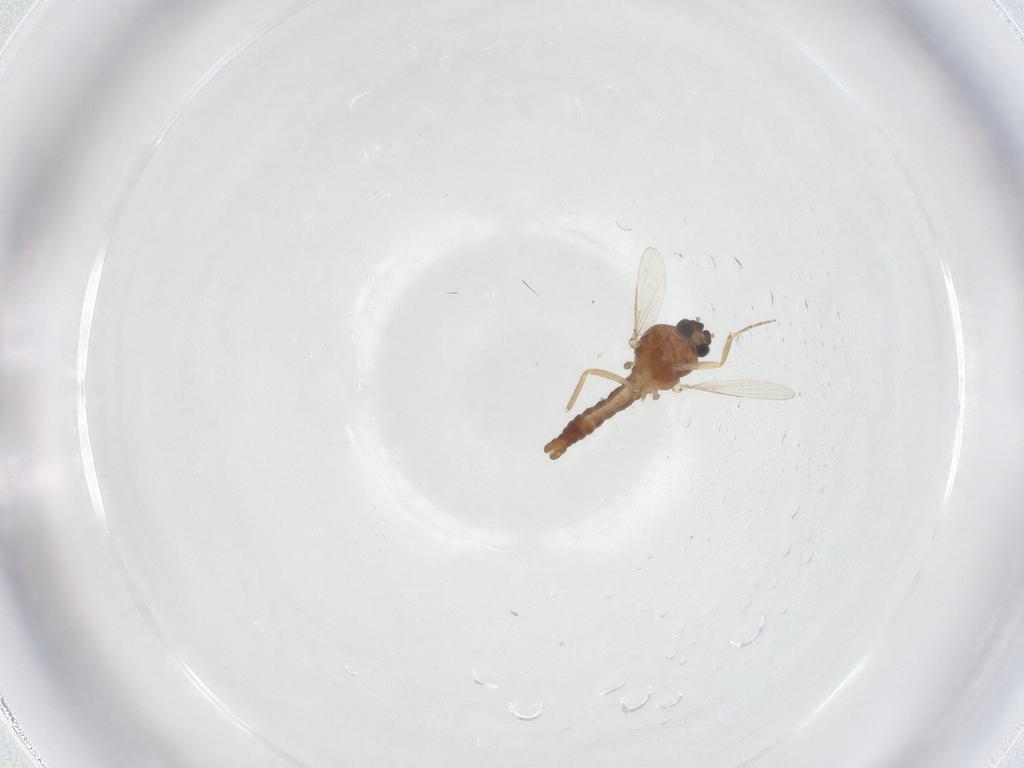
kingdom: Animalia
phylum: Arthropoda
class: Insecta
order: Diptera
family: Ceratopogonidae
